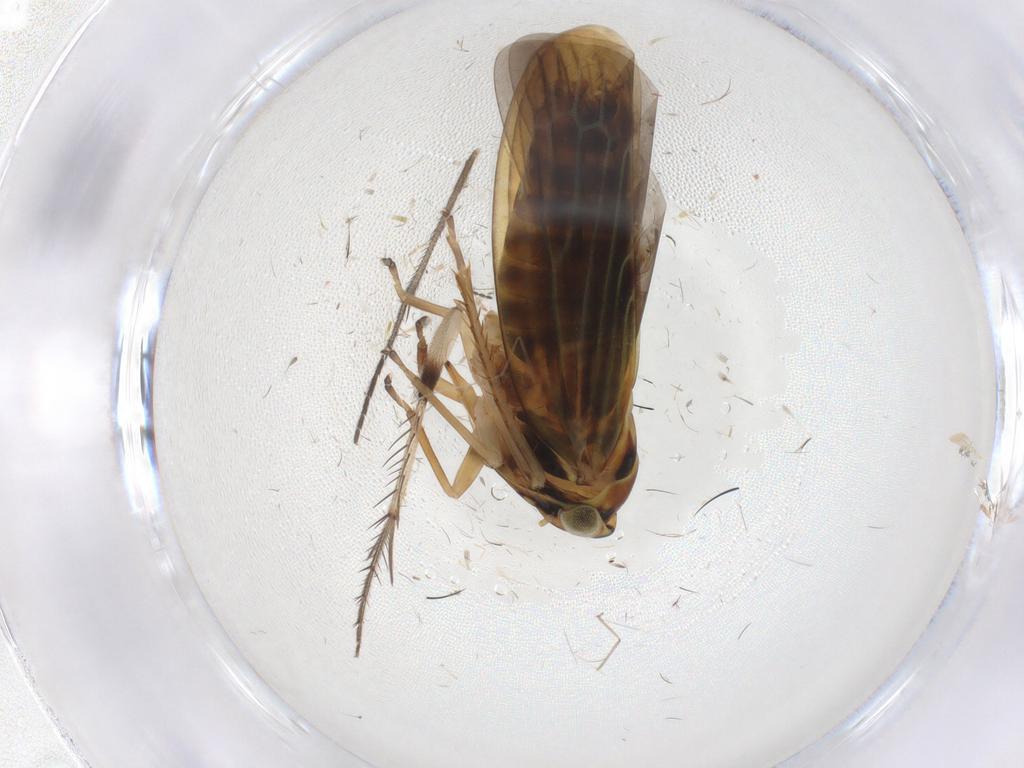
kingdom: Animalia
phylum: Arthropoda
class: Insecta
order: Hemiptera
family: Cicadellidae
